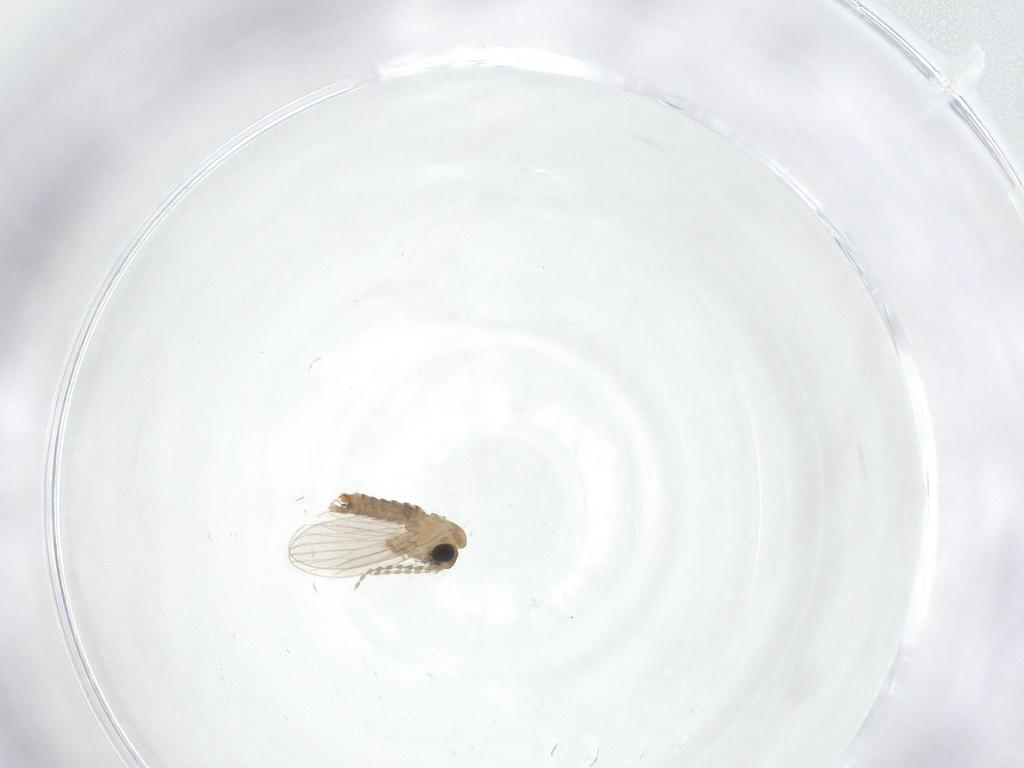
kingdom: Animalia
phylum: Arthropoda
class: Insecta
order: Diptera
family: Psychodidae
